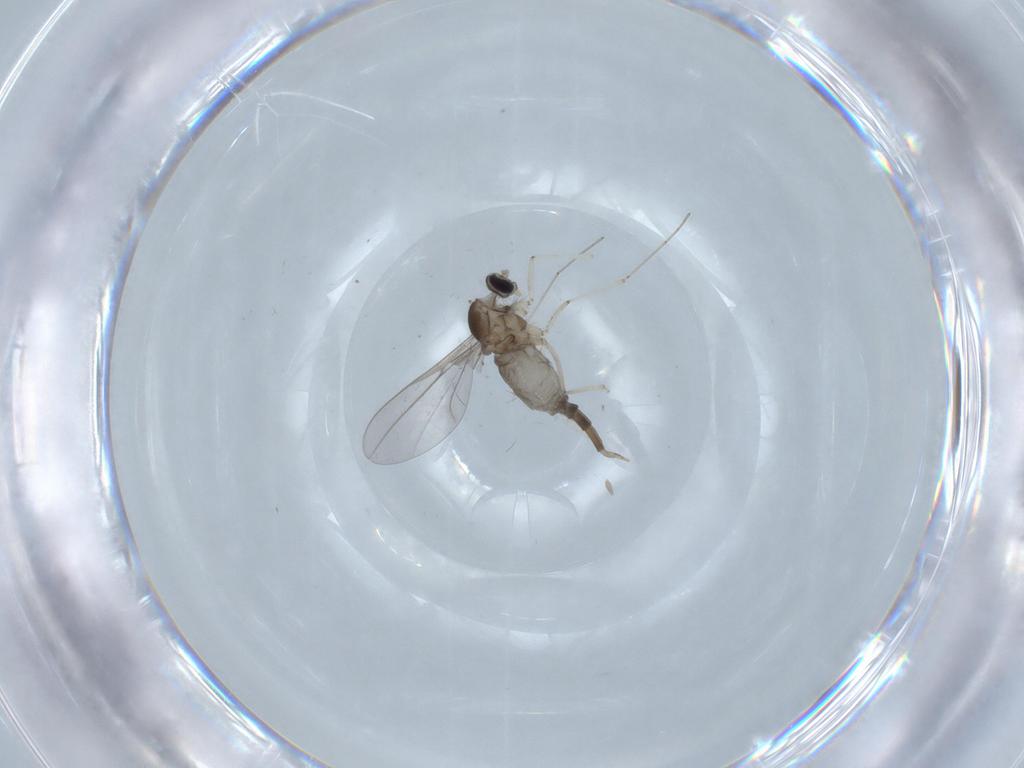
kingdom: Animalia
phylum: Arthropoda
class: Insecta
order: Diptera
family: Cecidomyiidae
